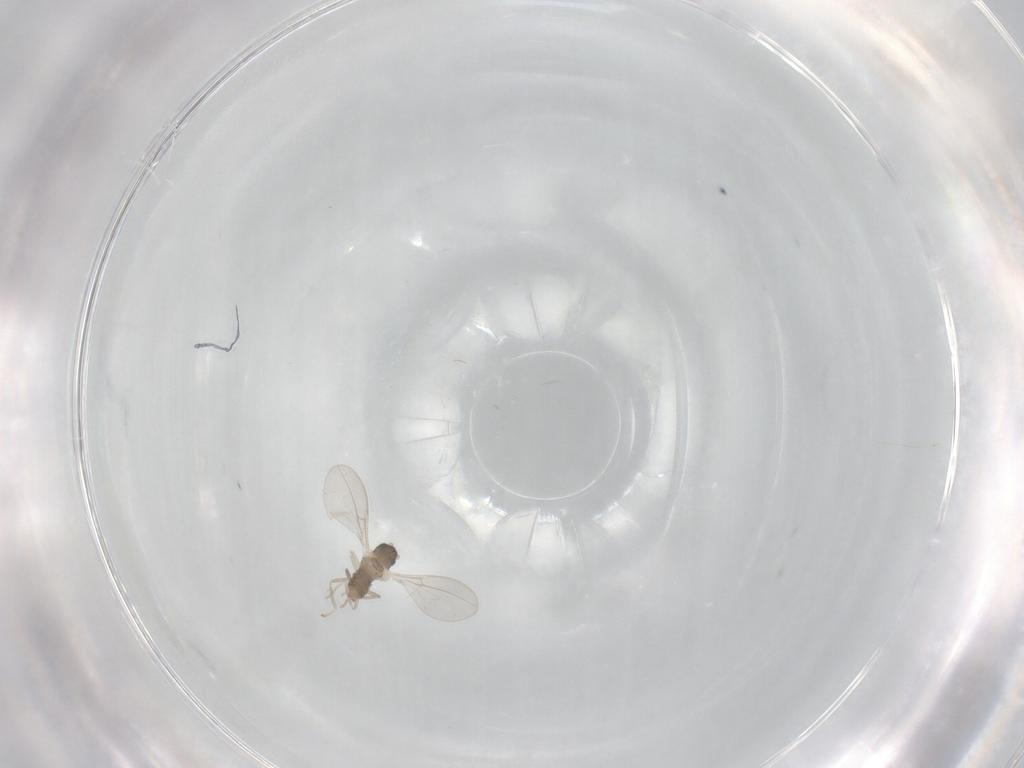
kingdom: Animalia
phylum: Arthropoda
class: Insecta
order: Diptera
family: Cecidomyiidae
